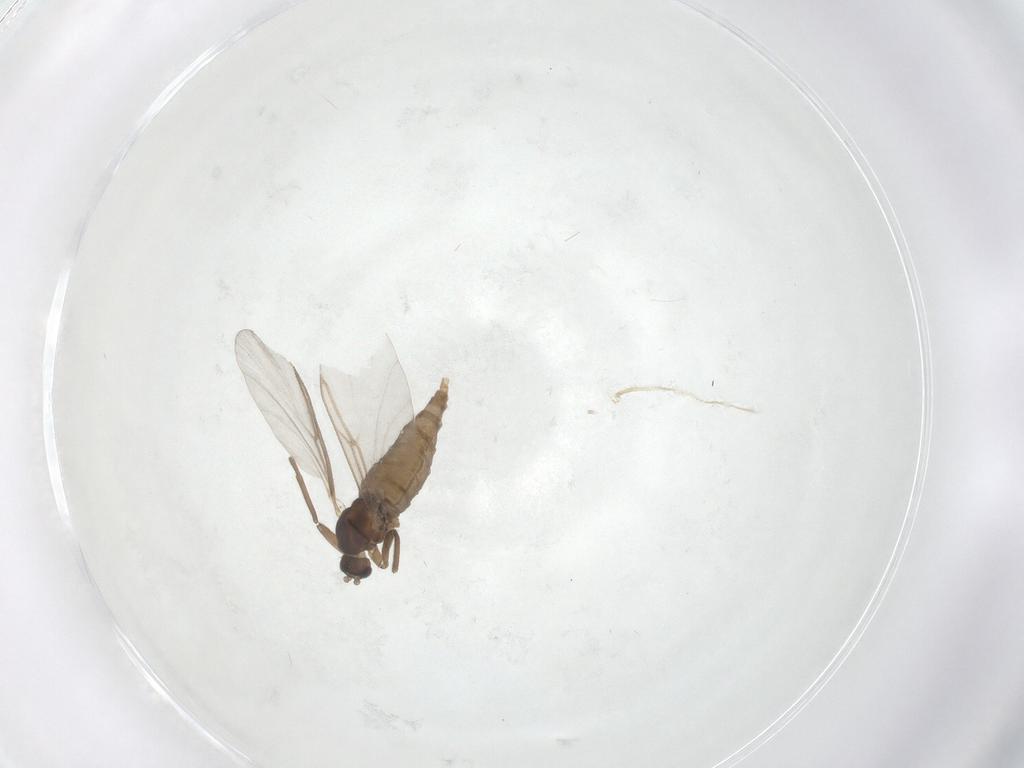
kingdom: Animalia
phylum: Arthropoda
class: Insecta
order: Diptera
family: Cecidomyiidae
